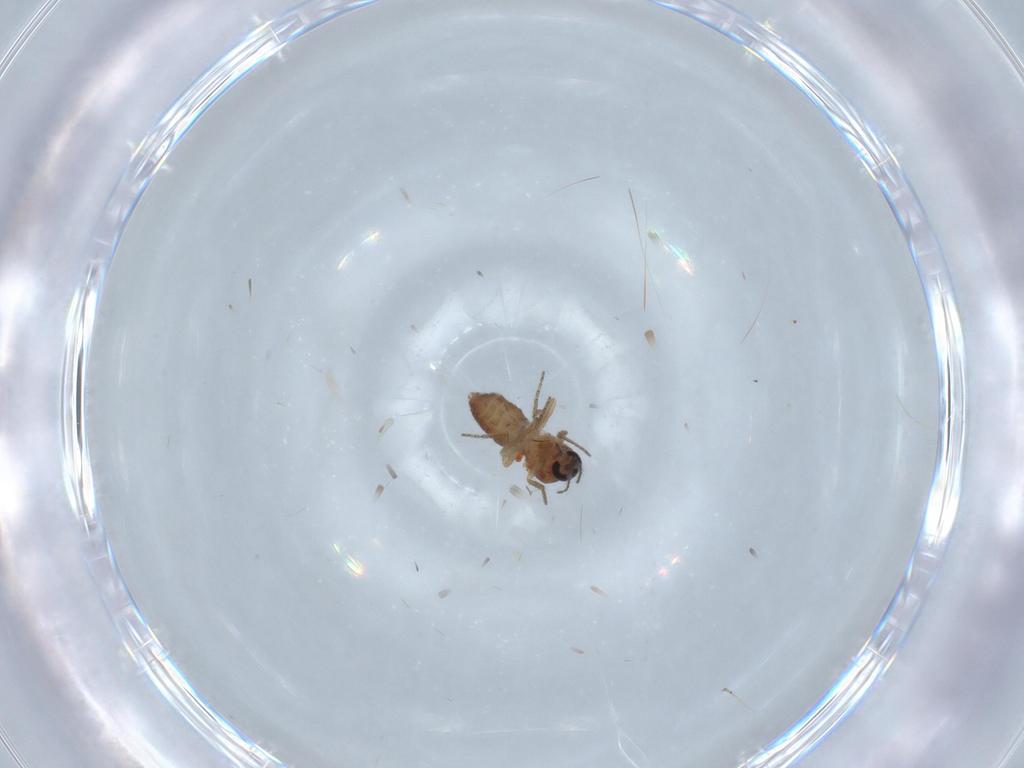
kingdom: Animalia
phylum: Arthropoda
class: Insecta
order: Diptera
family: Ceratopogonidae
